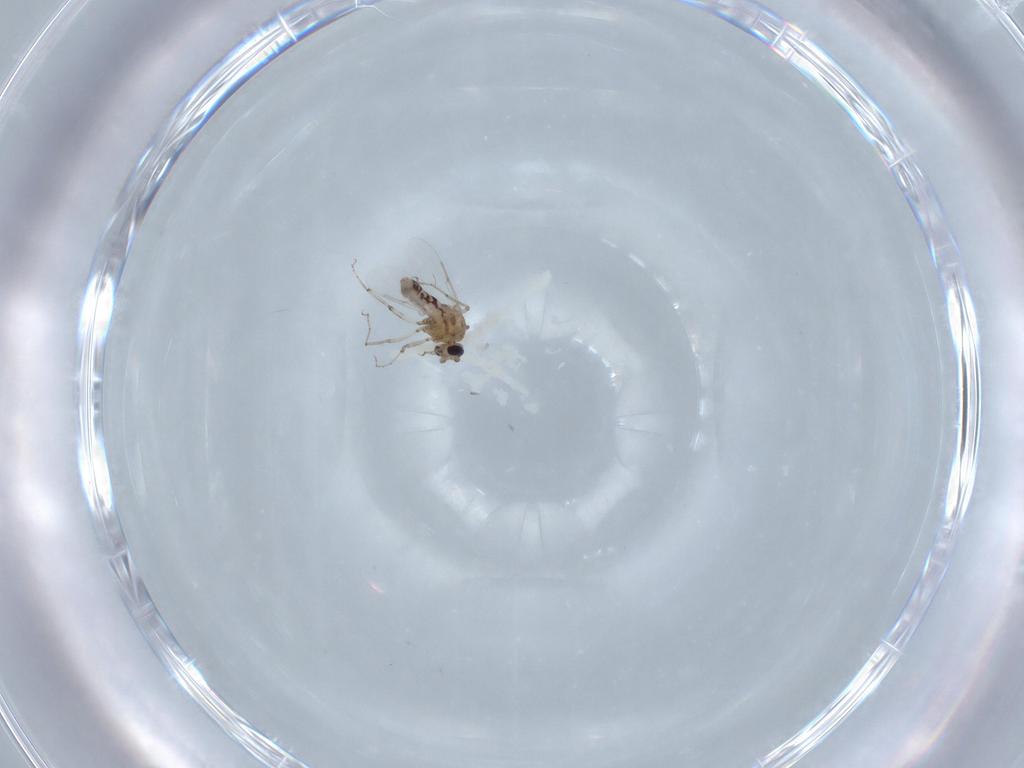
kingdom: Animalia
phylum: Arthropoda
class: Insecta
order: Diptera
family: Ceratopogonidae
